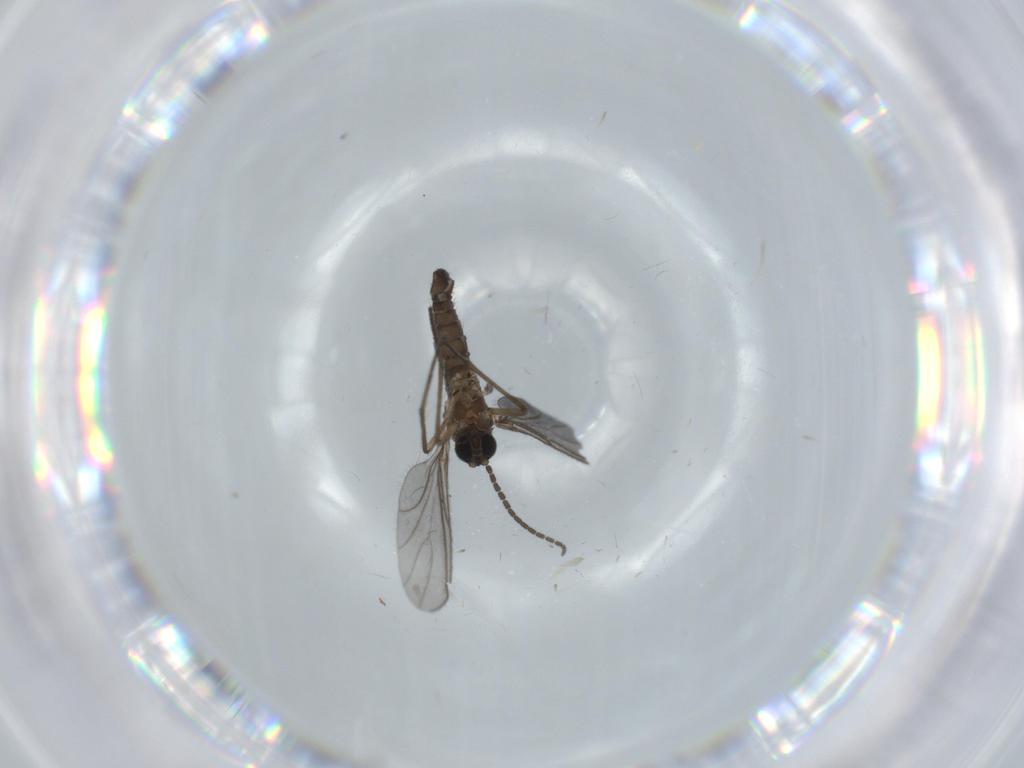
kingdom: Animalia
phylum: Arthropoda
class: Insecta
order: Diptera
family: Sciaridae
